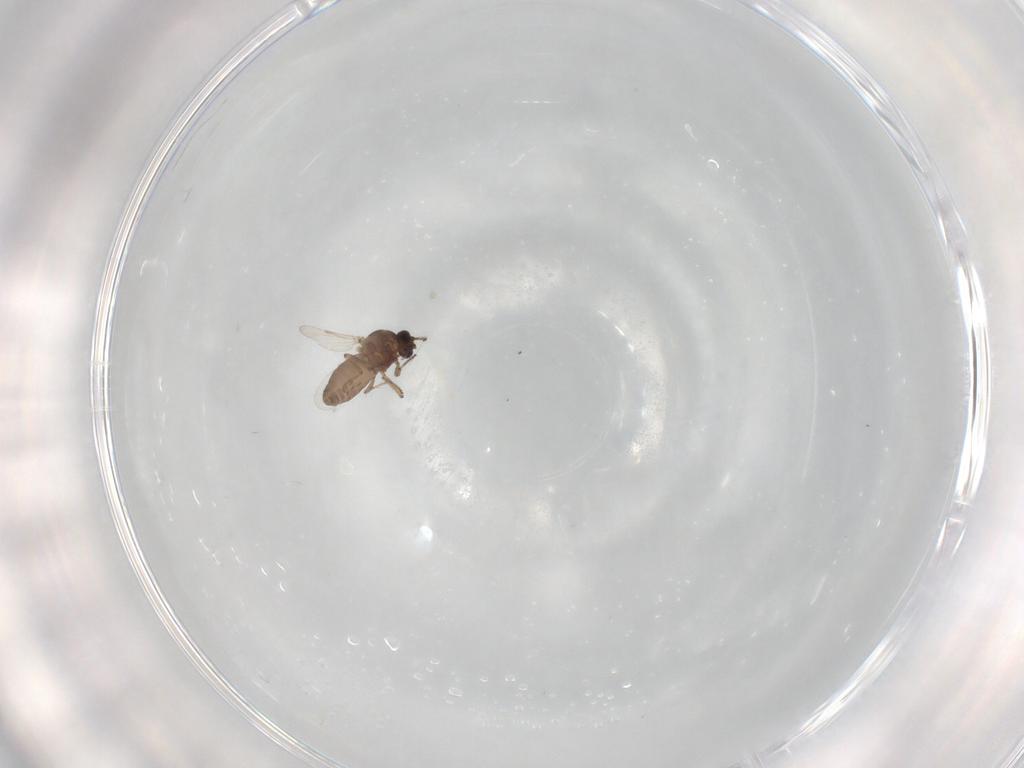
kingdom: Animalia
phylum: Arthropoda
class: Insecta
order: Diptera
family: Ceratopogonidae
